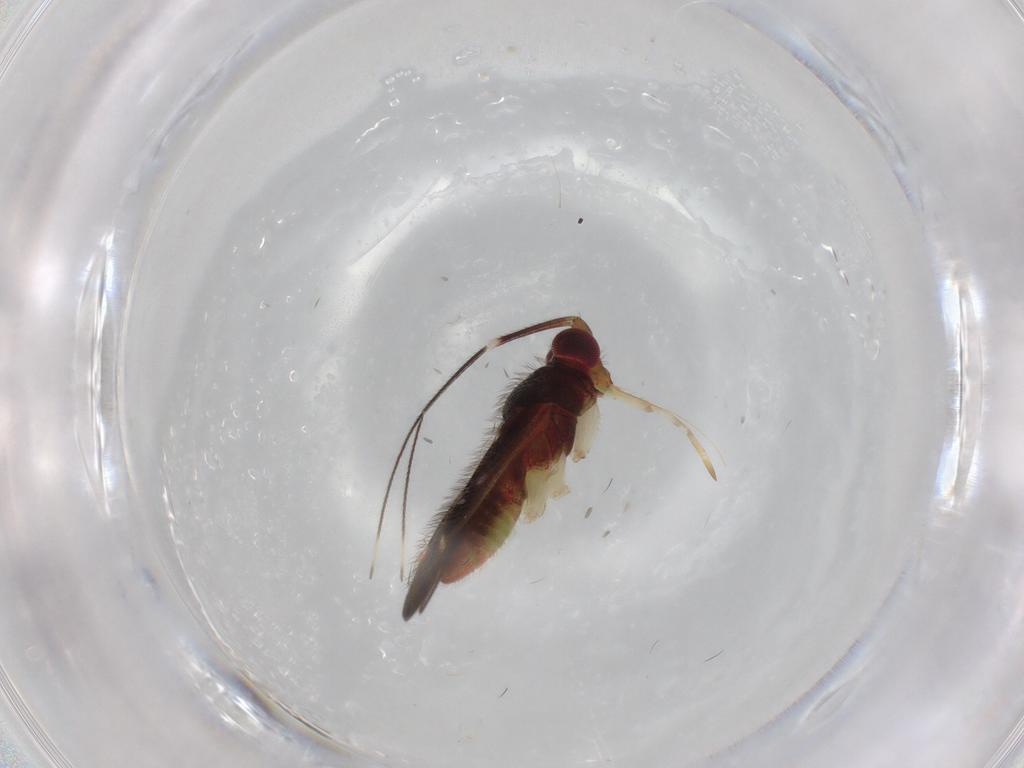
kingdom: Animalia
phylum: Arthropoda
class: Insecta
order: Hemiptera
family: Miridae
